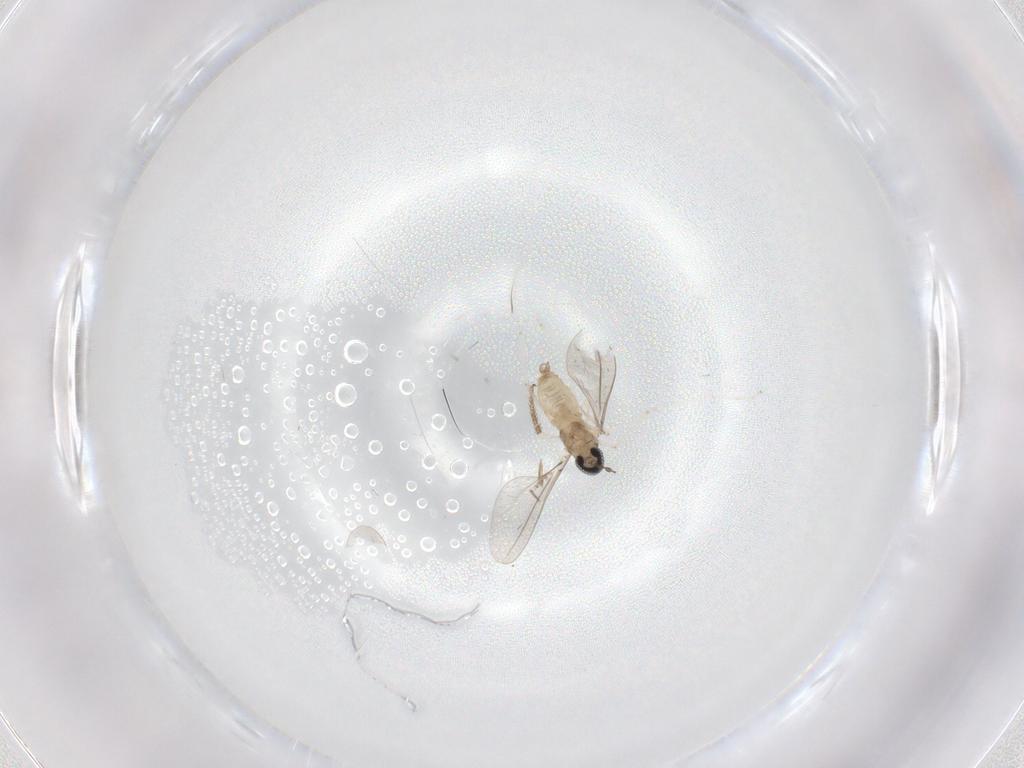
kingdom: Animalia
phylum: Arthropoda
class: Insecta
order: Diptera
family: Cecidomyiidae
